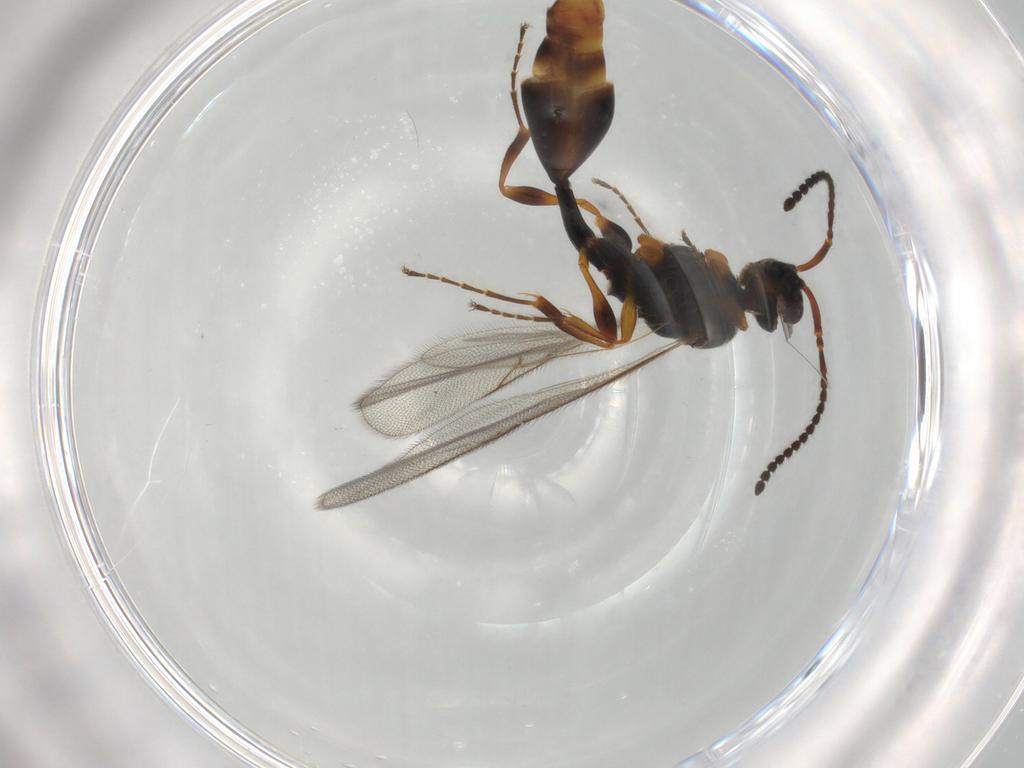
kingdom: Animalia
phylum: Arthropoda
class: Insecta
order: Hymenoptera
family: Diapriidae
